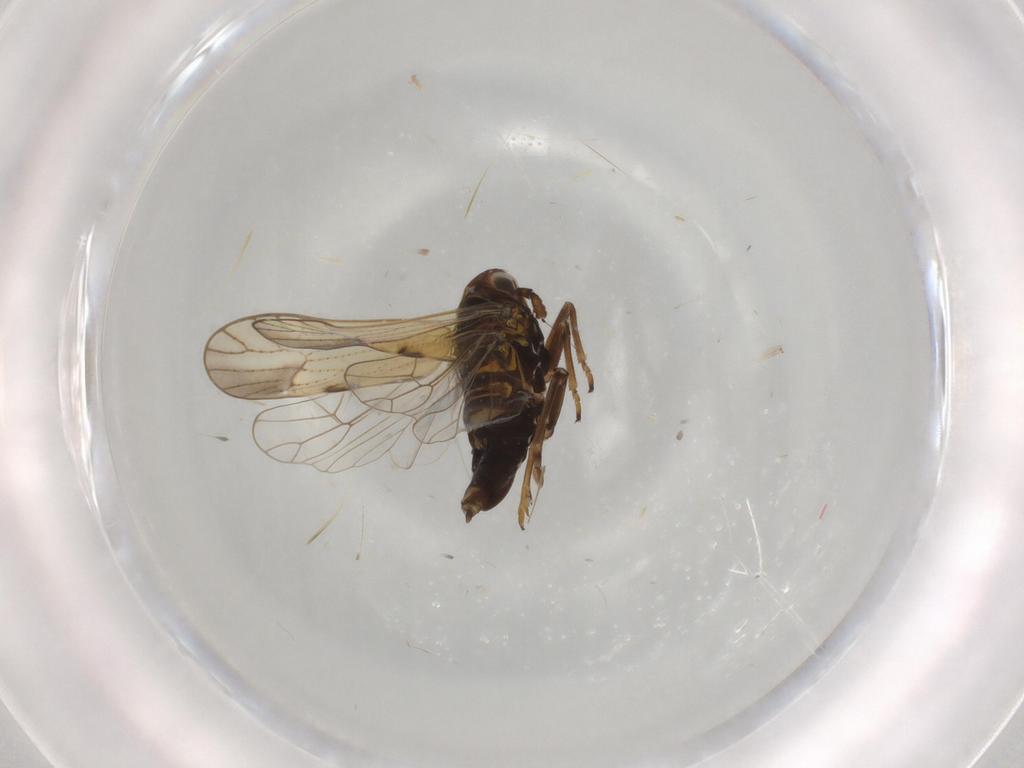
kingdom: Animalia
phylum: Arthropoda
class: Insecta
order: Hemiptera
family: Delphacidae
